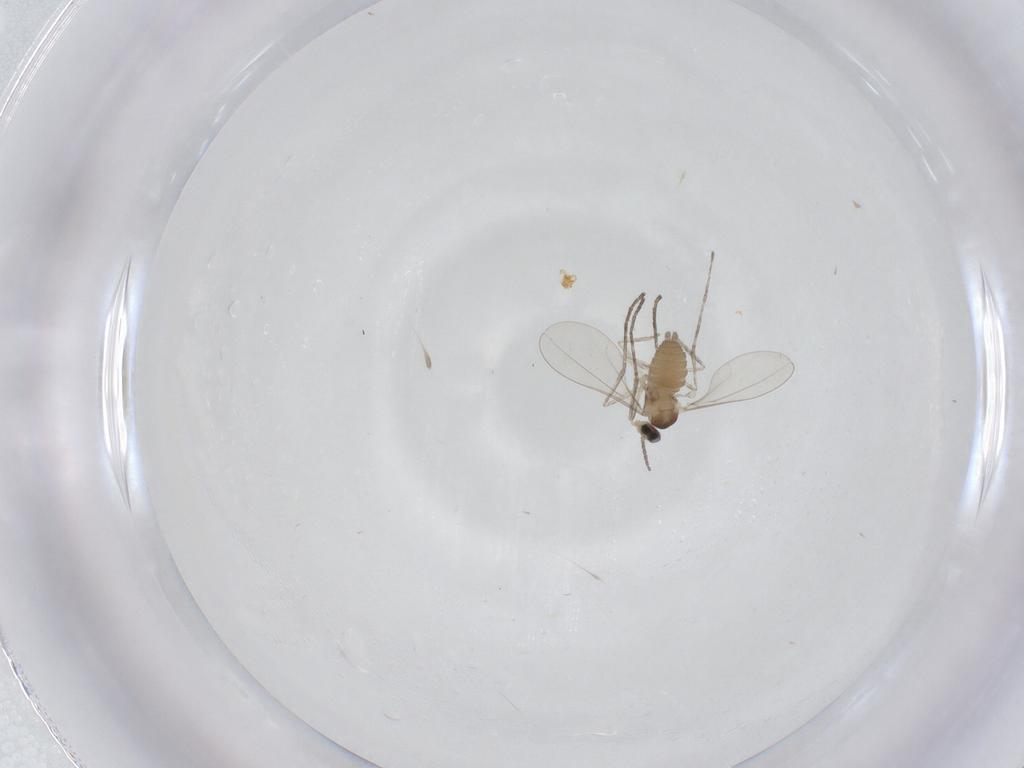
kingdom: Animalia
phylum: Arthropoda
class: Insecta
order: Diptera
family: Cecidomyiidae
